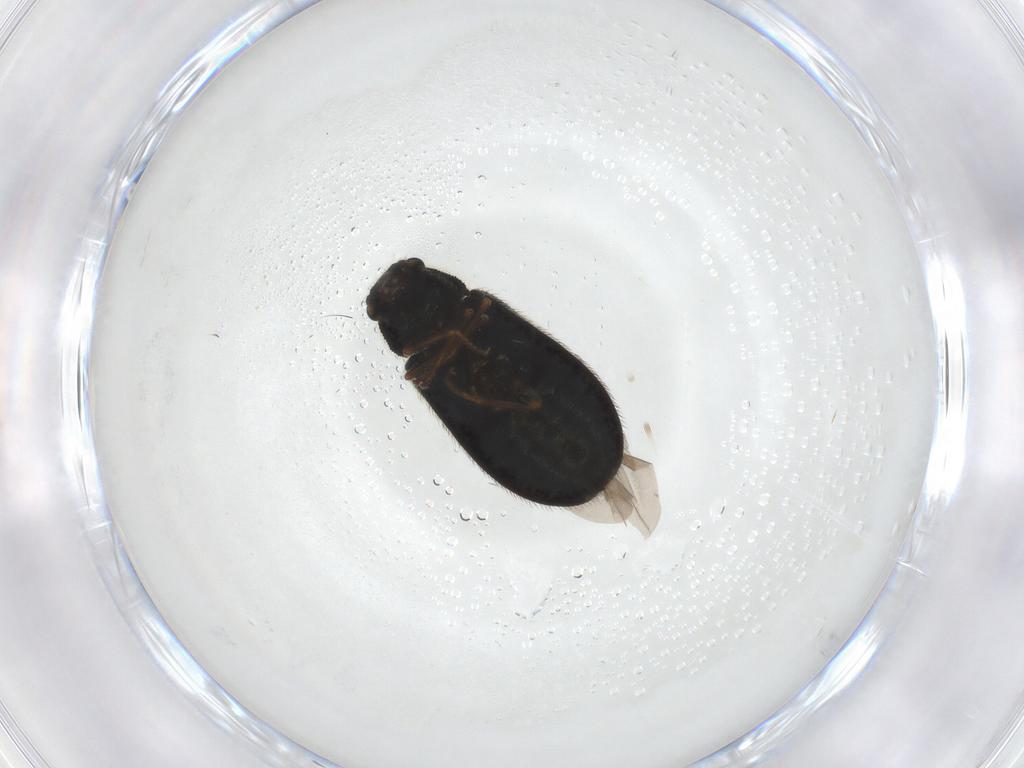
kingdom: Animalia
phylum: Arthropoda
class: Insecta
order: Coleoptera
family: Melyridae
